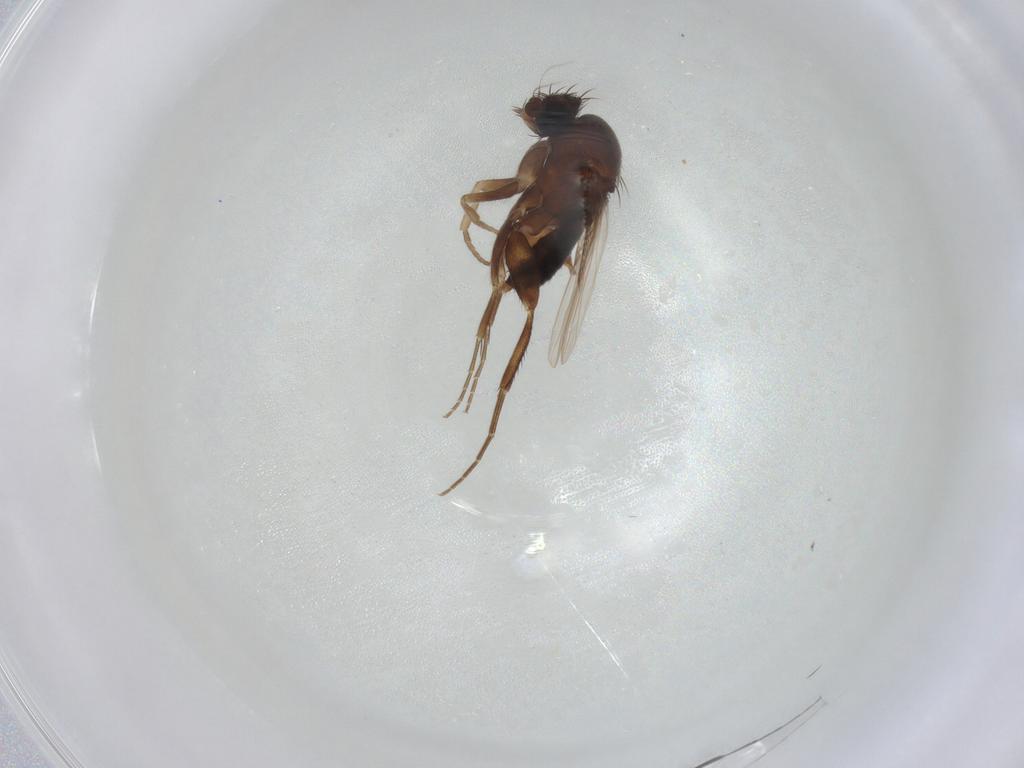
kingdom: Animalia
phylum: Arthropoda
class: Insecta
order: Diptera
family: Phoridae
